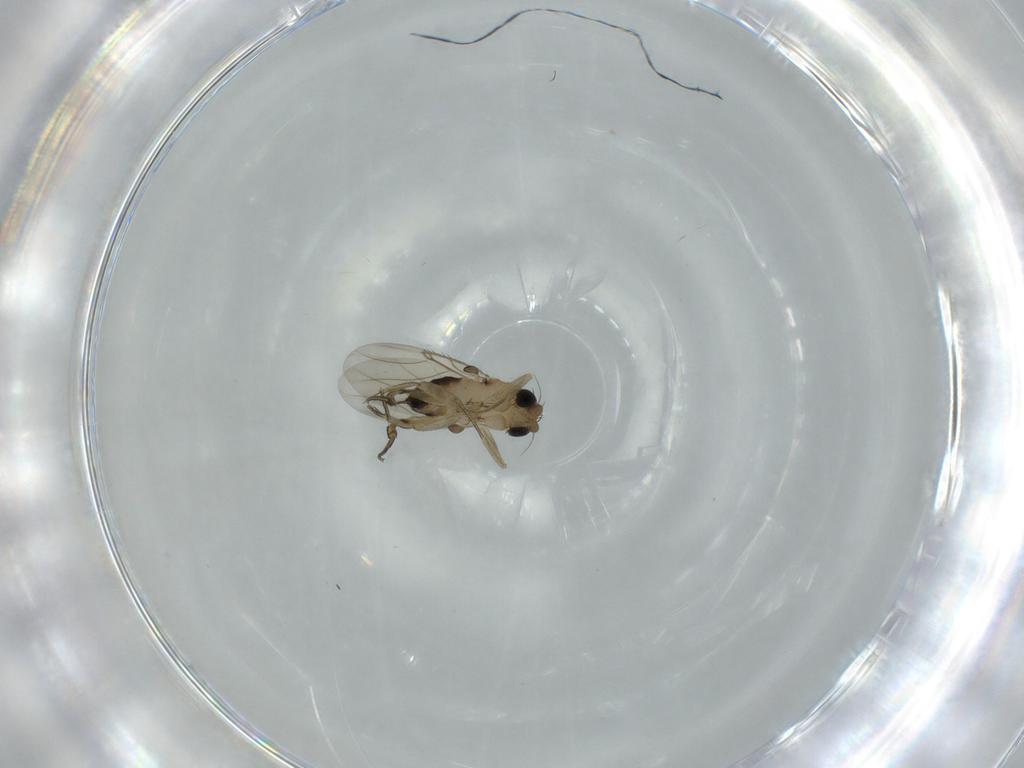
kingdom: Animalia
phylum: Arthropoda
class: Insecta
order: Diptera
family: Phoridae
